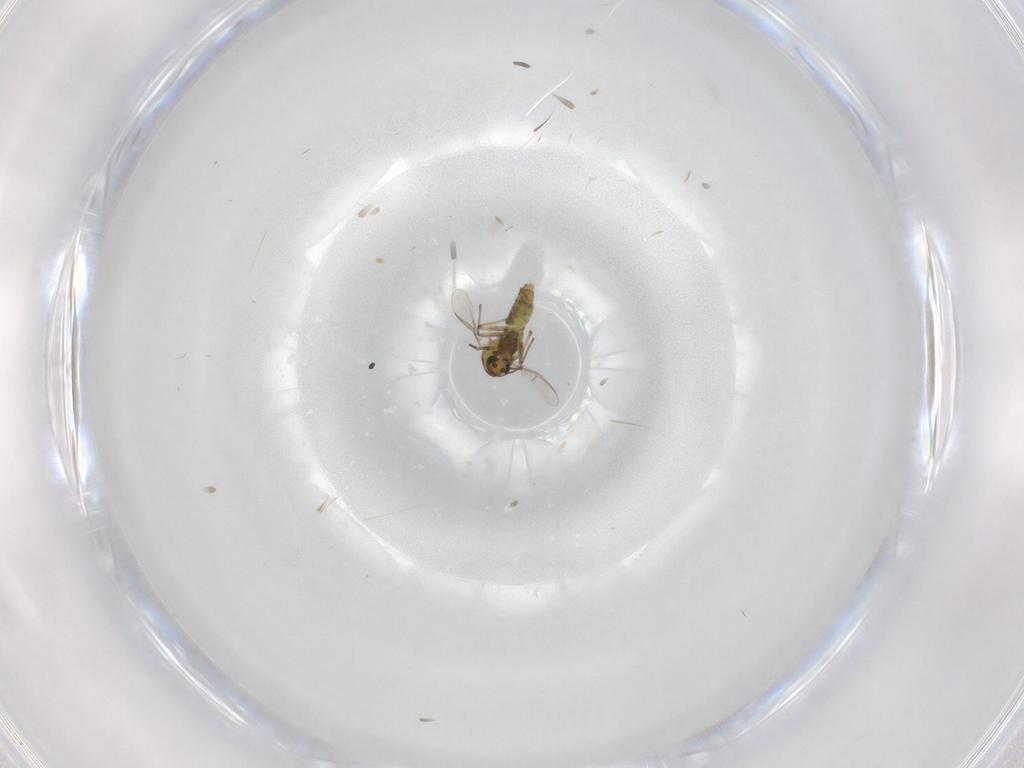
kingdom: Animalia
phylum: Arthropoda
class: Insecta
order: Diptera
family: Chironomidae
